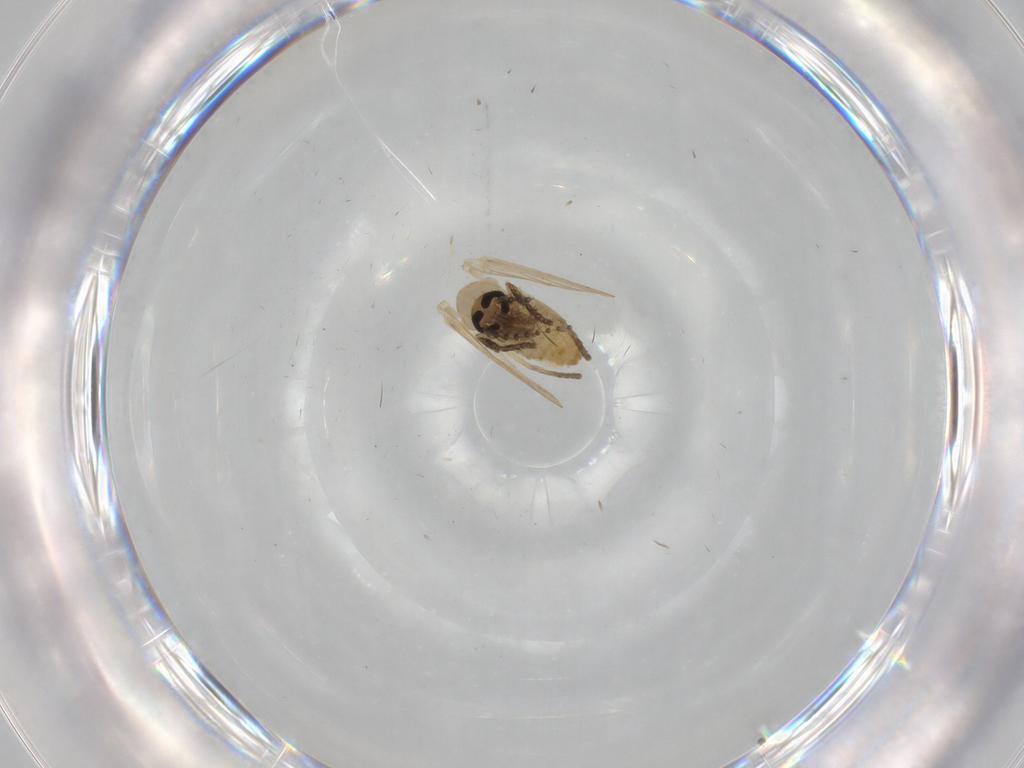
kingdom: Animalia
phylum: Arthropoda
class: Insecta
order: Diptera
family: Psychodidae
